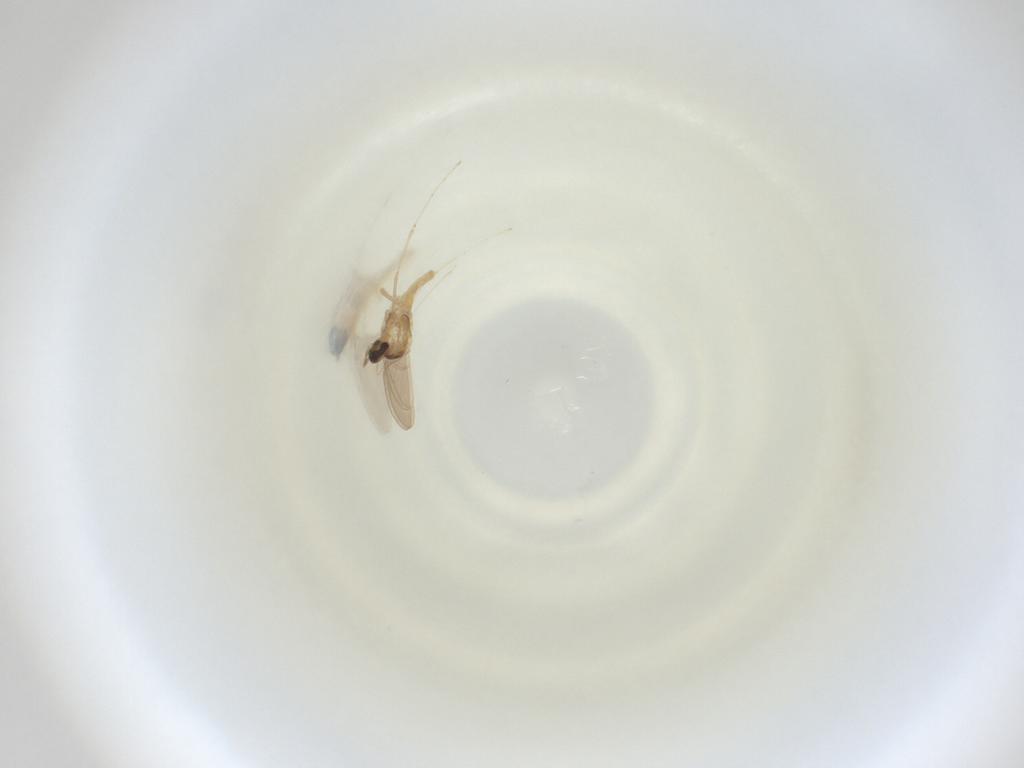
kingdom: Animalia
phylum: Arthropoda
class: Insecta
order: Diptera
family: Cecidomyiidae
